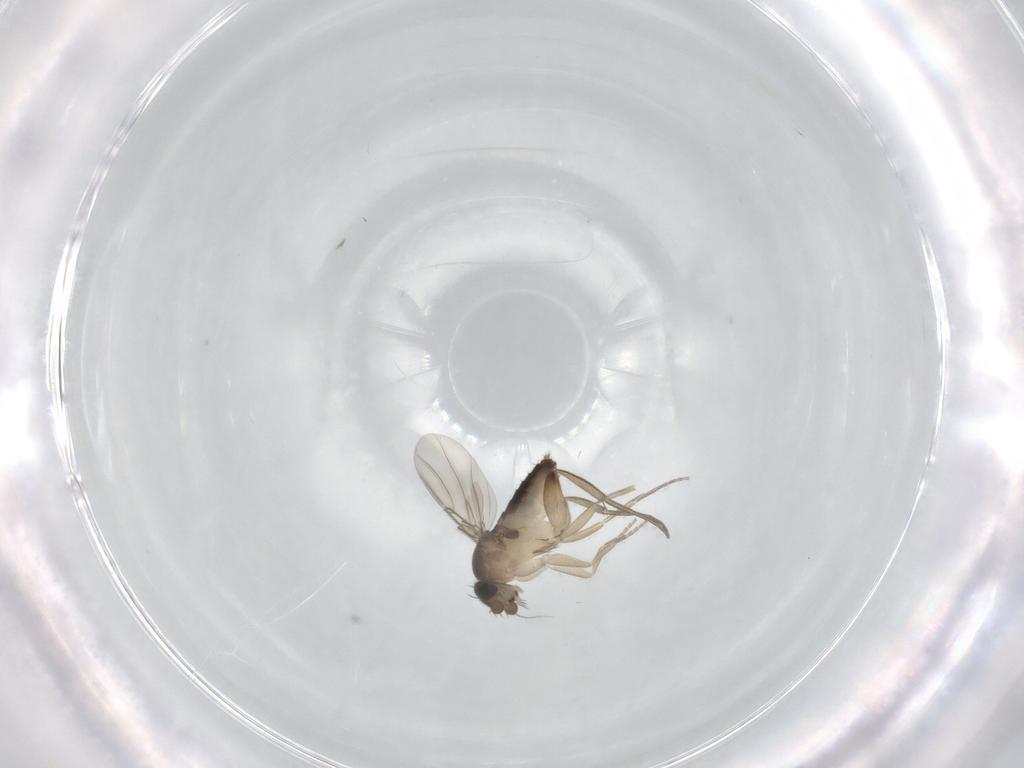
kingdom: Animalia
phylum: Arthropoda
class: Insecta
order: Diptera
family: Phoridae
